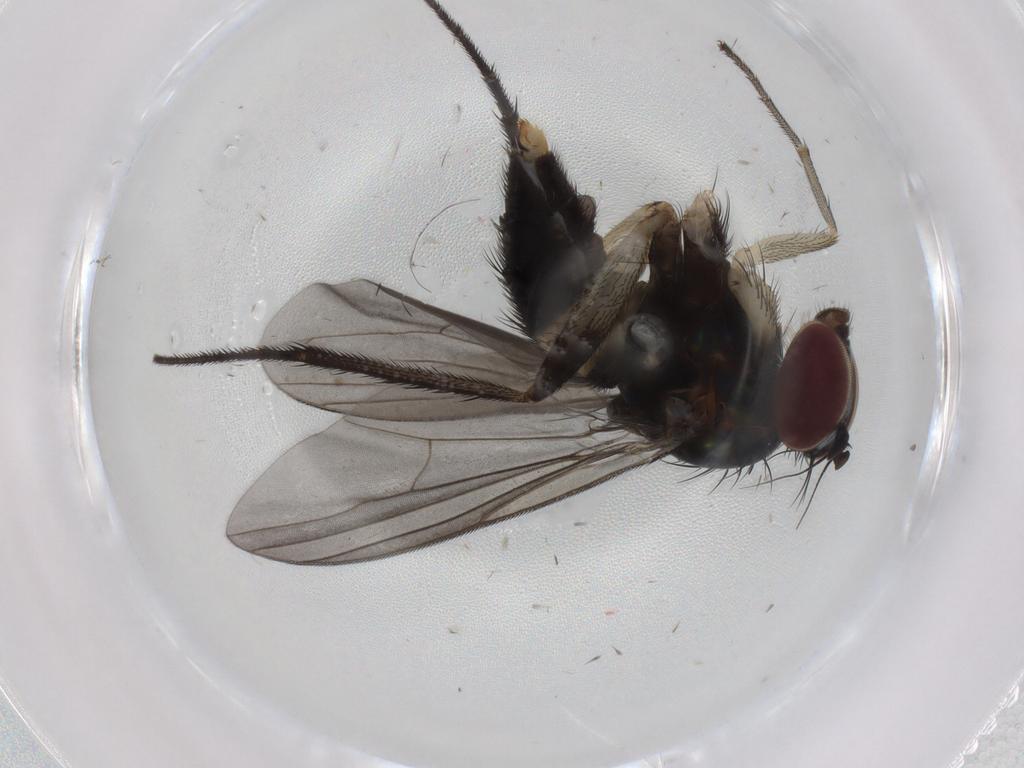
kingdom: Animalia
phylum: Arthropoda
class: Insecta
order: Diptera
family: Dolichopodidae
